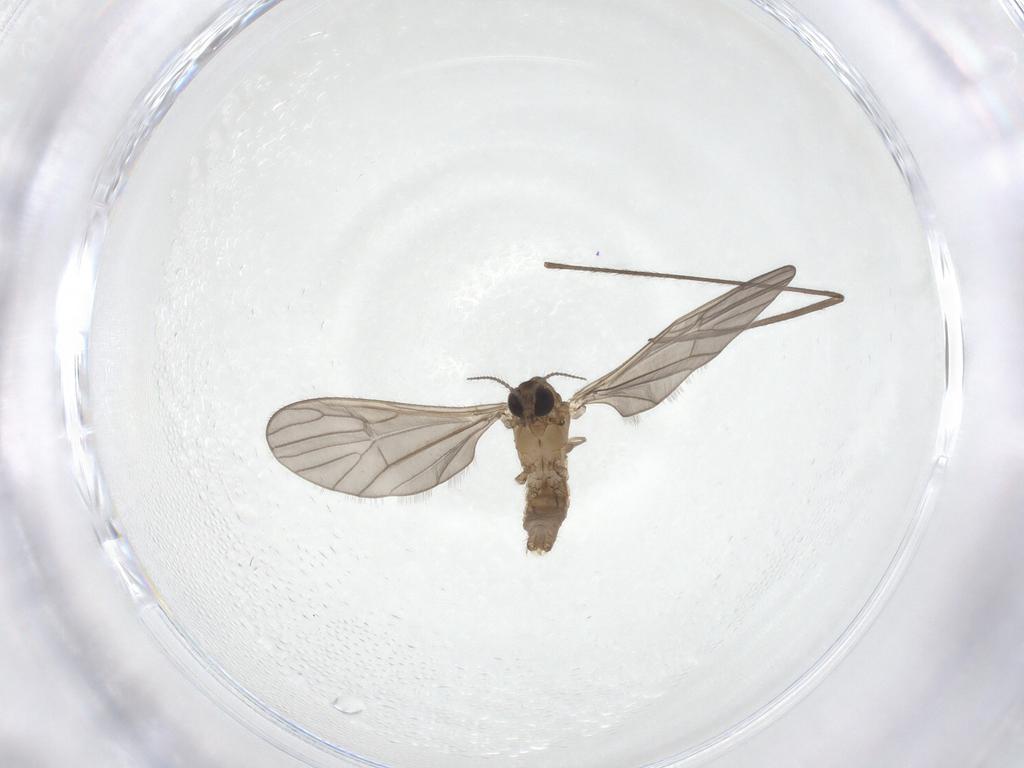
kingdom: Animalia
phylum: Arthropoda
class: Insecta
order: Diptera
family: Limoniidae
